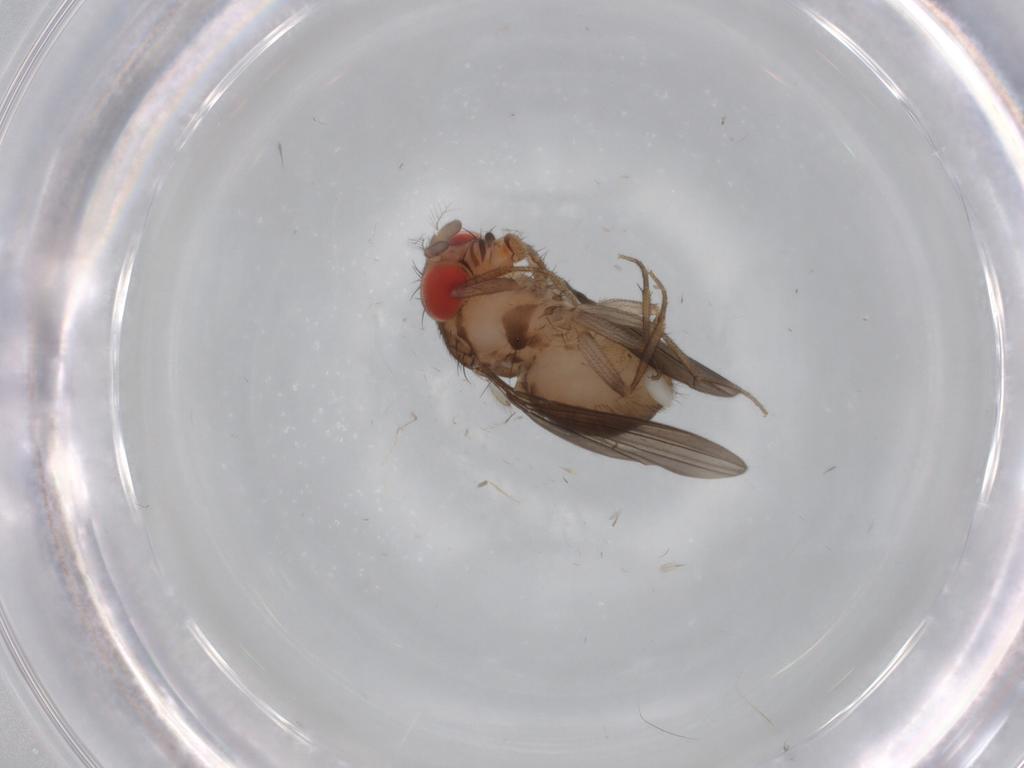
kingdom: Animalia
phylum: Arthropoda
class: Insecta
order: Diptera
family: Drosophilidae
